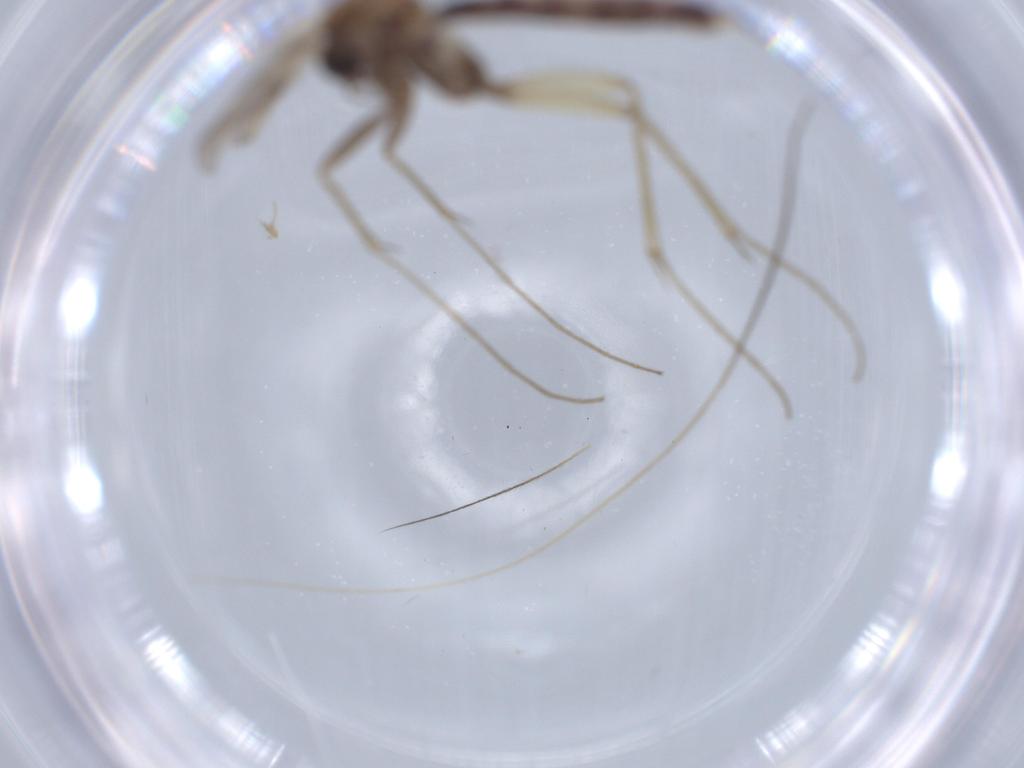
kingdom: Animalia
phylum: Arthropoda
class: Insecta
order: Diptera
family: Mycetophilidae
